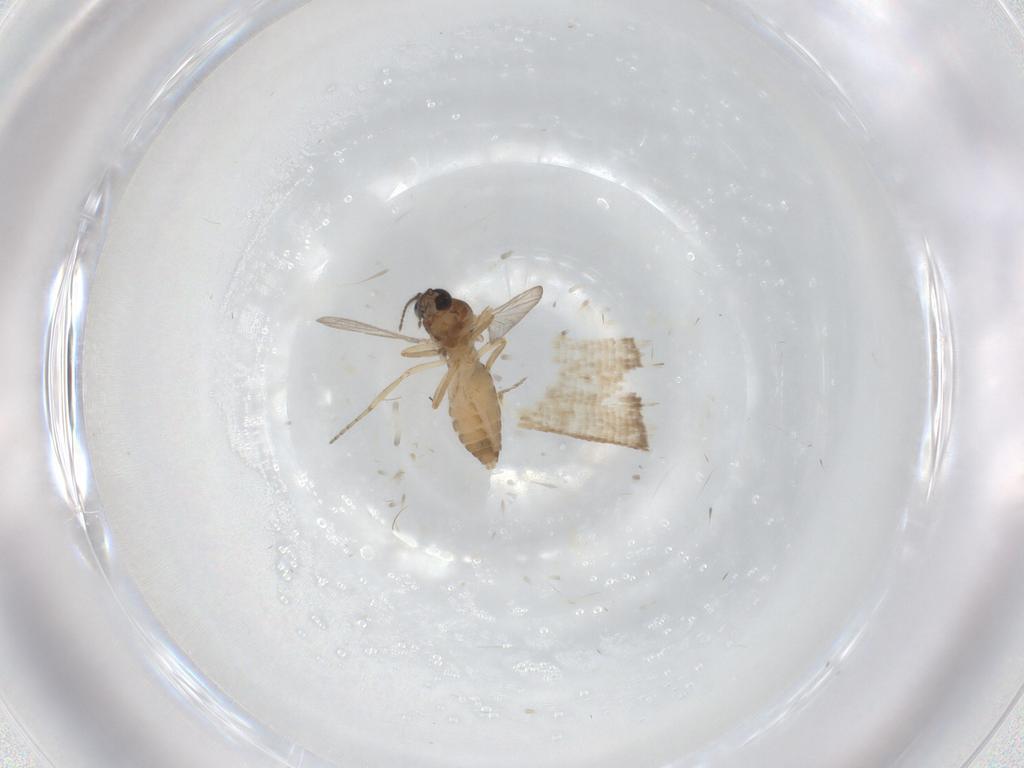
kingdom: Animalia
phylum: Arthropoda
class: Insecta
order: Diptera
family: Ceratopogonidae
